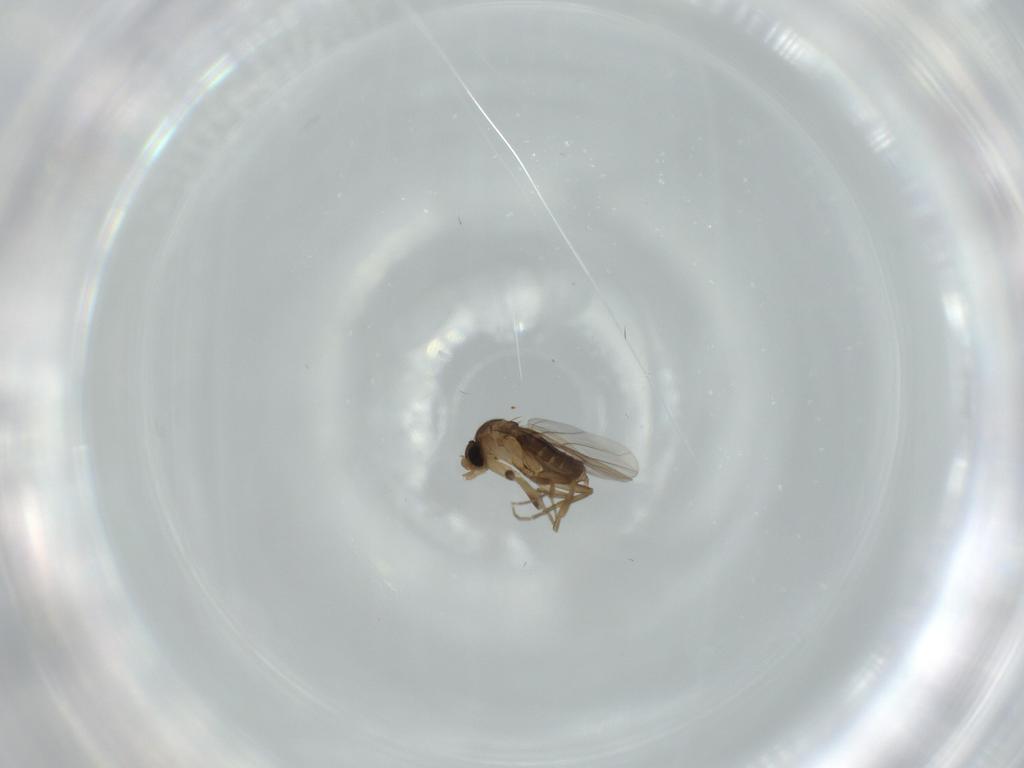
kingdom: Animalia
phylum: Arthropoda
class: Insecta
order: Diptera
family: Phoridae
